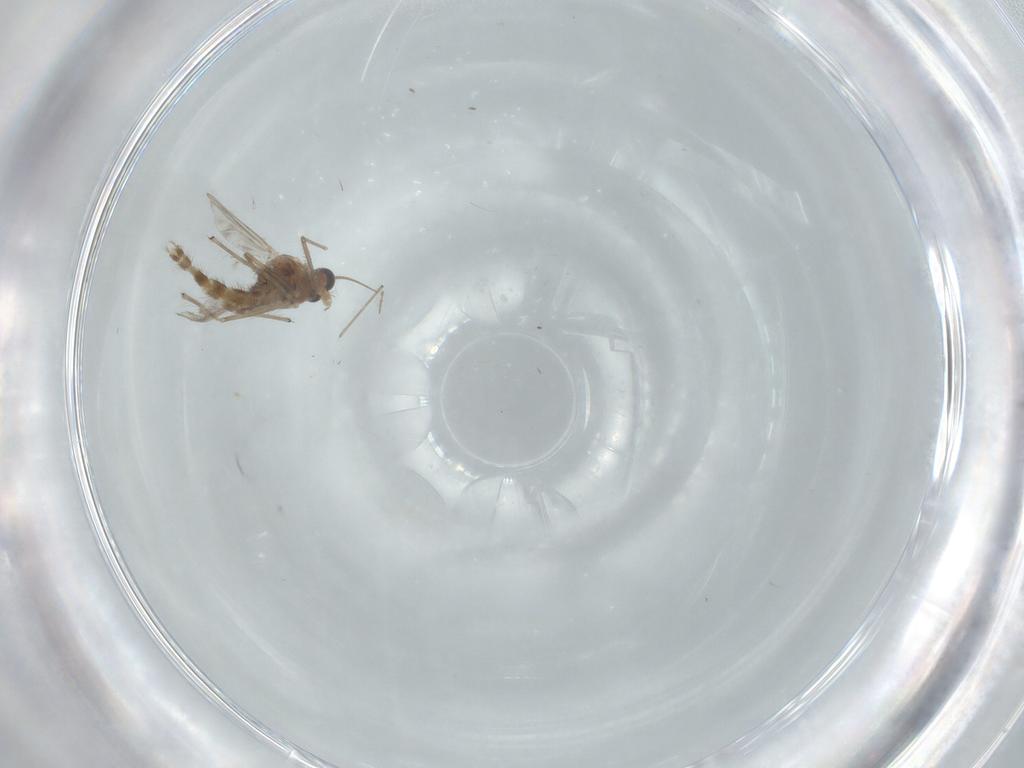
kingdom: Animalia
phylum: Arthropoda
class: Insecta
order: Diptera
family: Chironomidae
